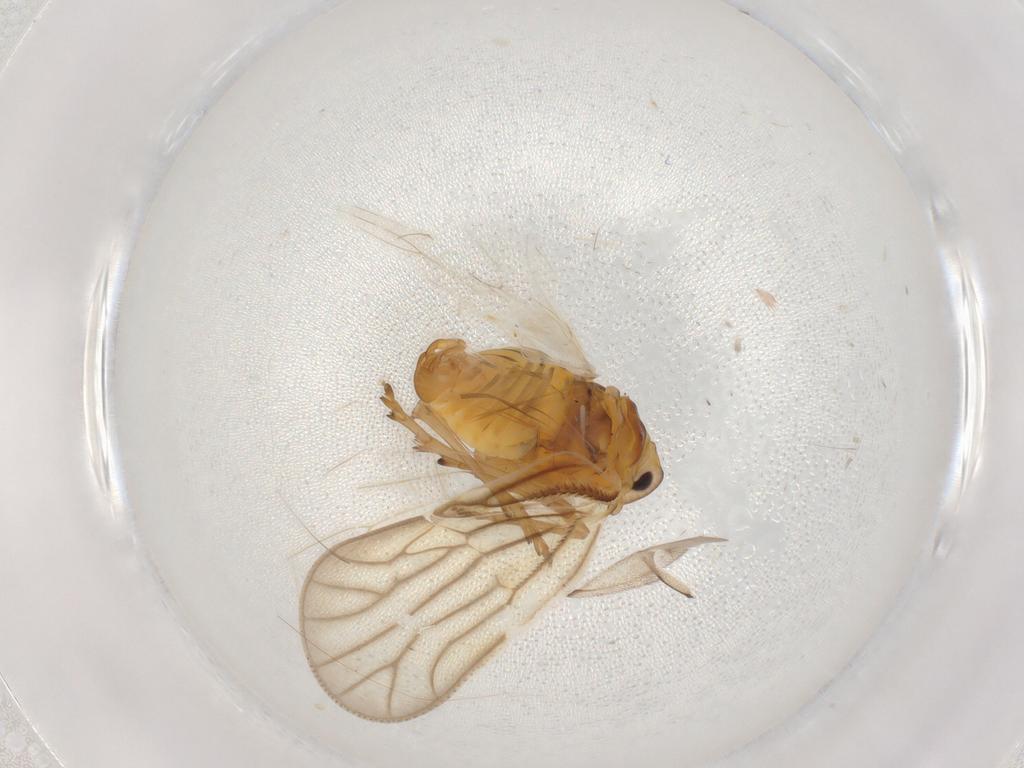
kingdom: Animalia
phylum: Arthropoda
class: Insecta
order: Hemiptera
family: Meenoplidae
